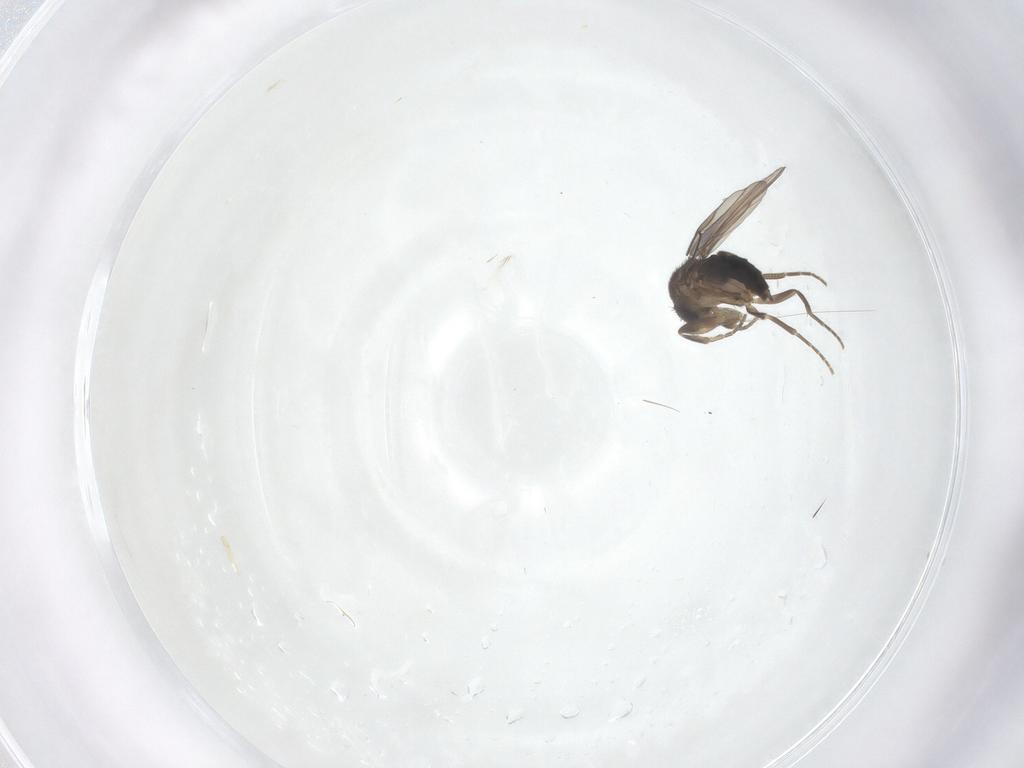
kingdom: Animalia
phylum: Arthropoda
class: Insecta
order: Diptera
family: Phoridae
